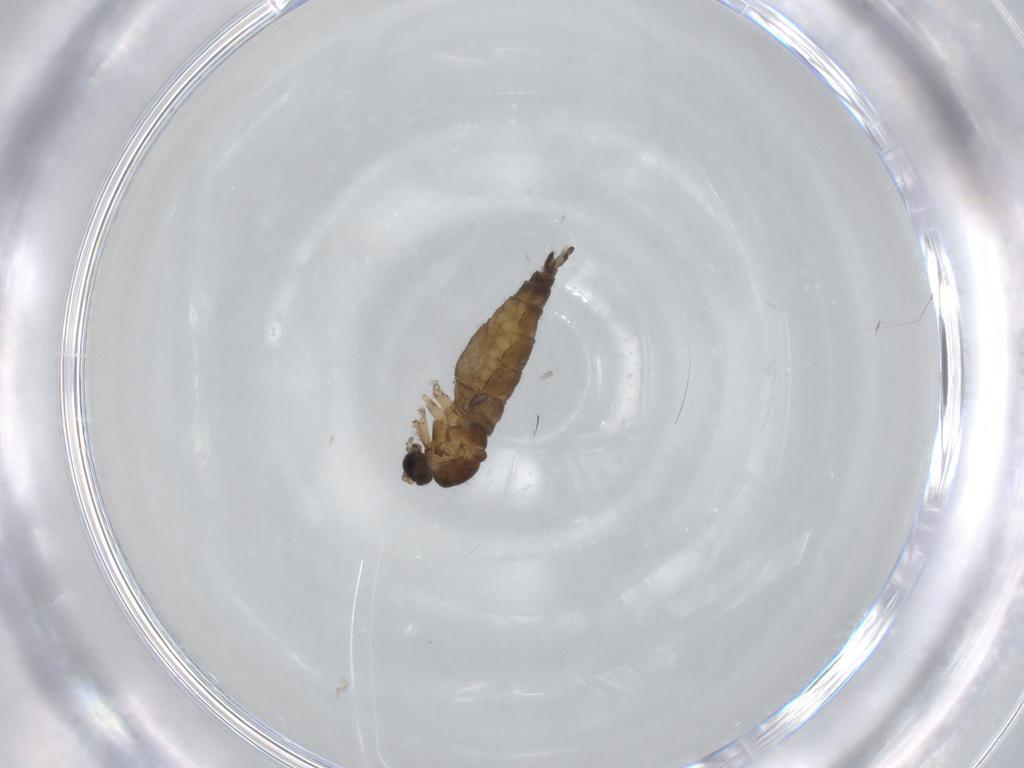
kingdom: Animalia
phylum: Arthropoda
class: Insecta
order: Diptera
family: Sciaridae
